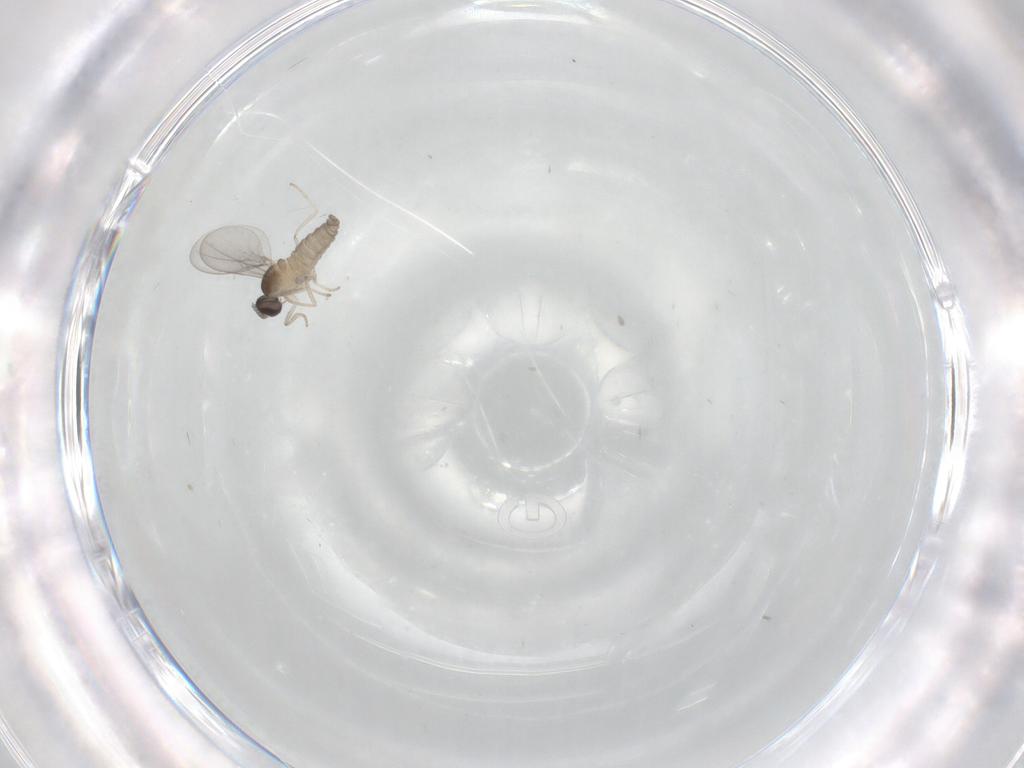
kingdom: Animalia
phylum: Arthropoda
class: Insecta
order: Diptera
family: Cecidomyiidae
